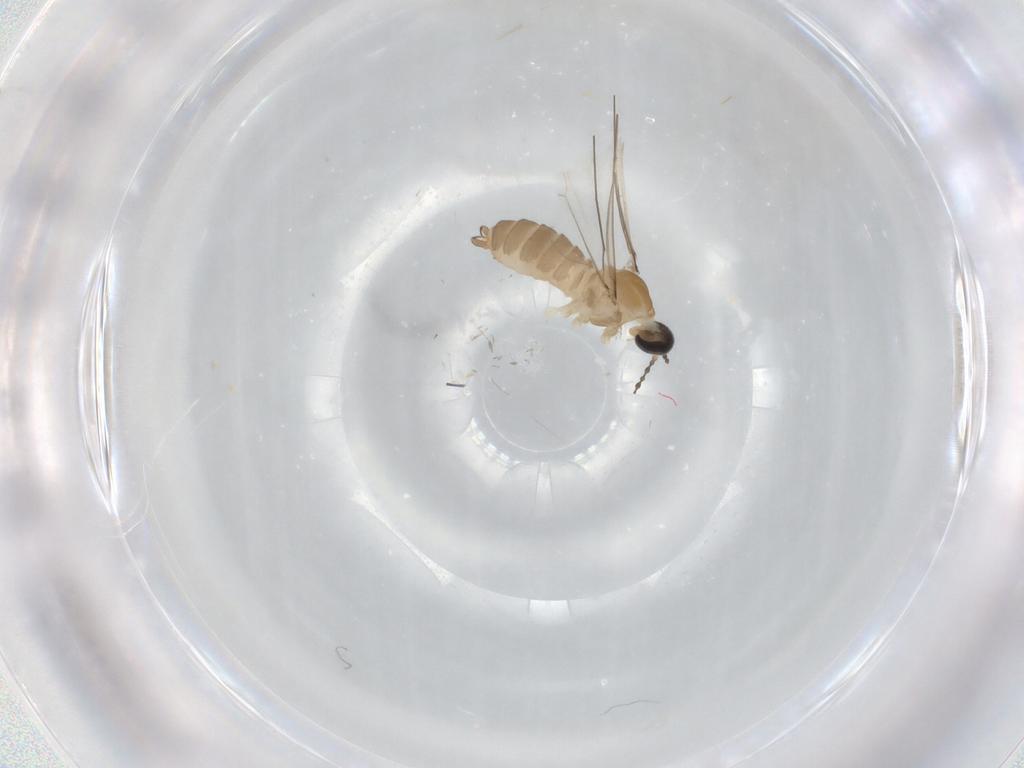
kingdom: Animalia
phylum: Arthropoda
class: Insecta
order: Diptera
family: Cecidomyiidae
